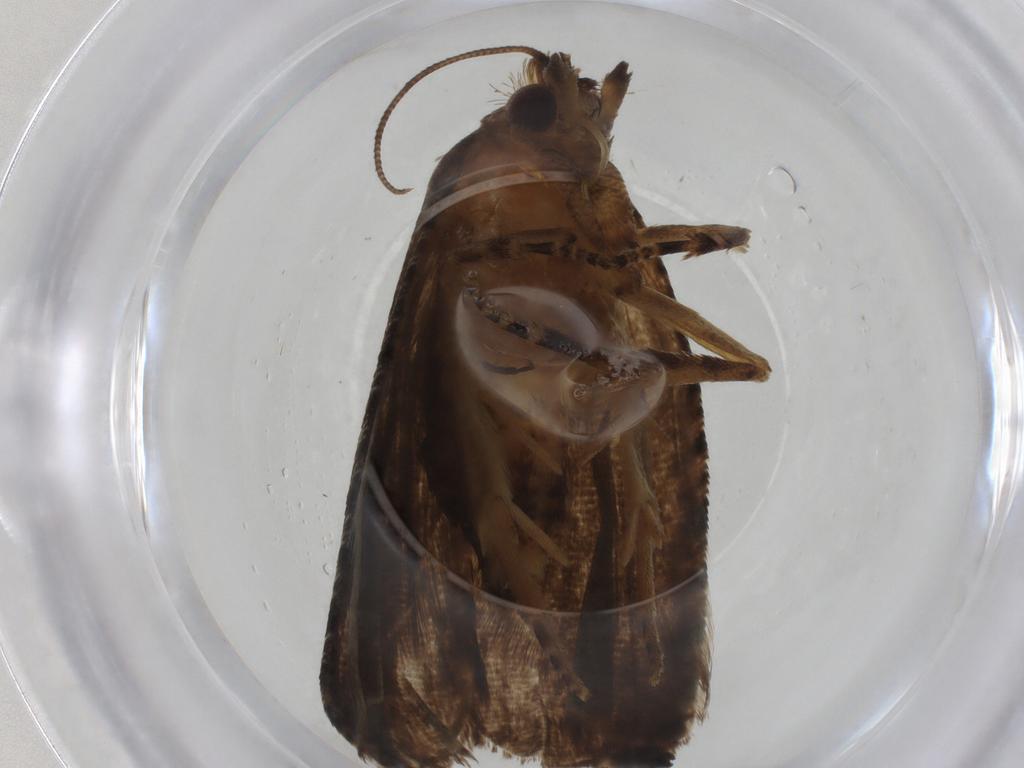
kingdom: Animalia
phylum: Arthropoda
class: Insecta
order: Lepidoptera
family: Tortricidae
